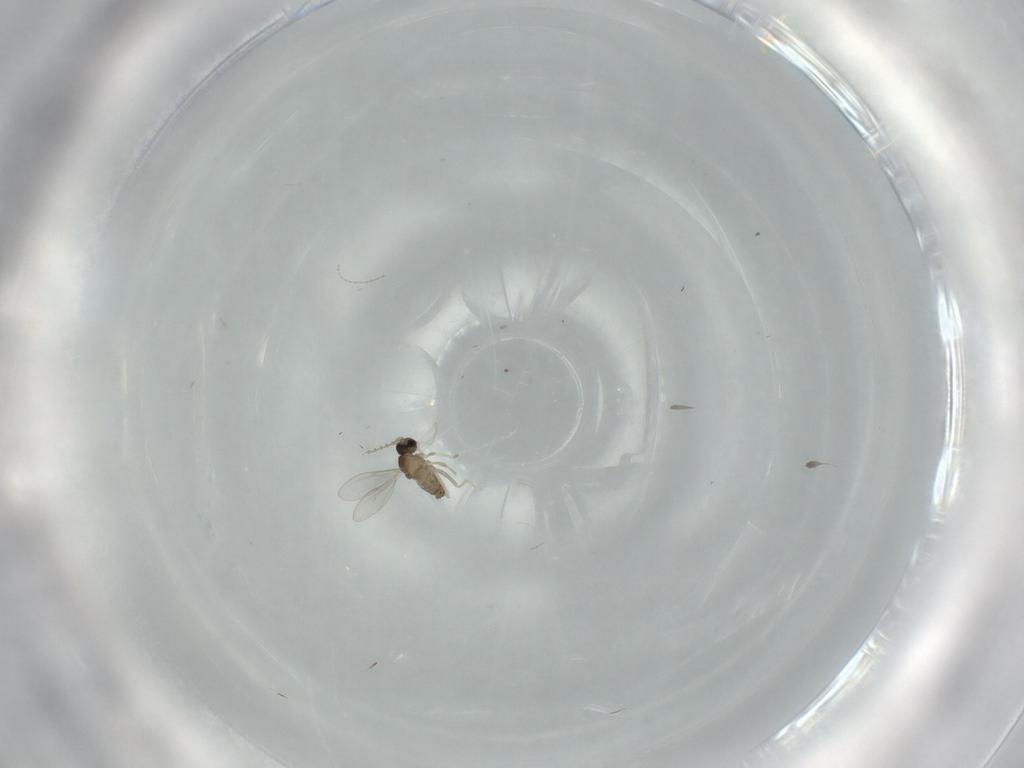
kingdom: Animalia
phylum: Arthropoda
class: Insecta
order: Diptera
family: Cecidomyiidae
